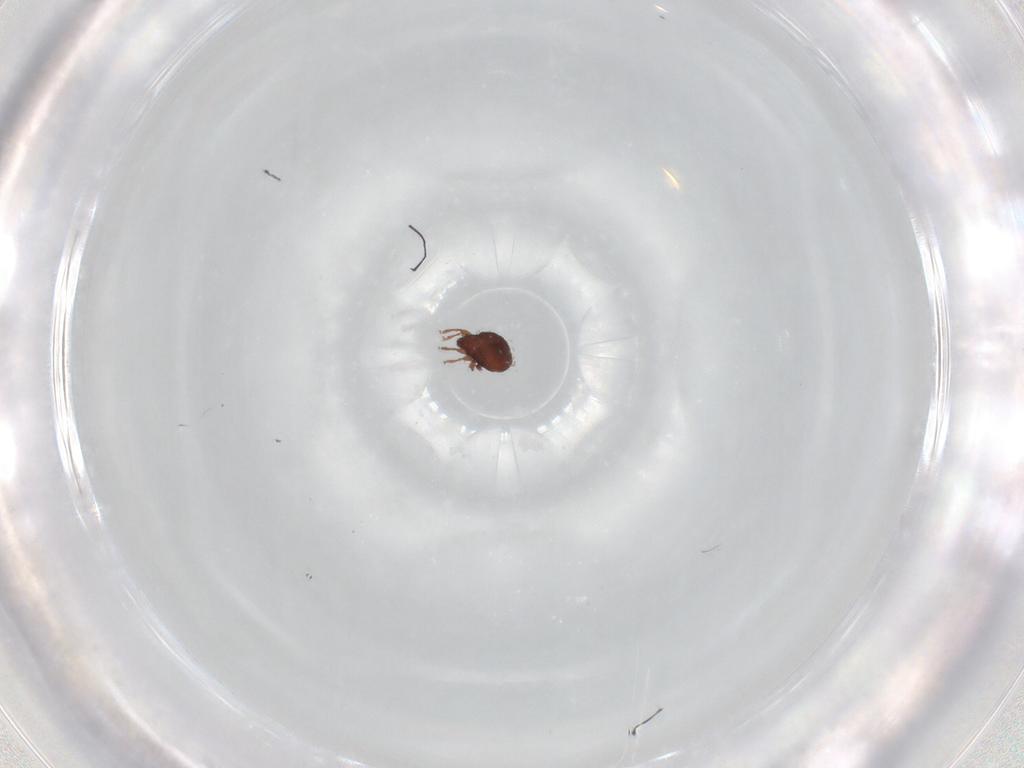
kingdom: Animalia
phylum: Arthropoda
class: Arachnida
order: Sarcoptiformes
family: Scheloribatidae
